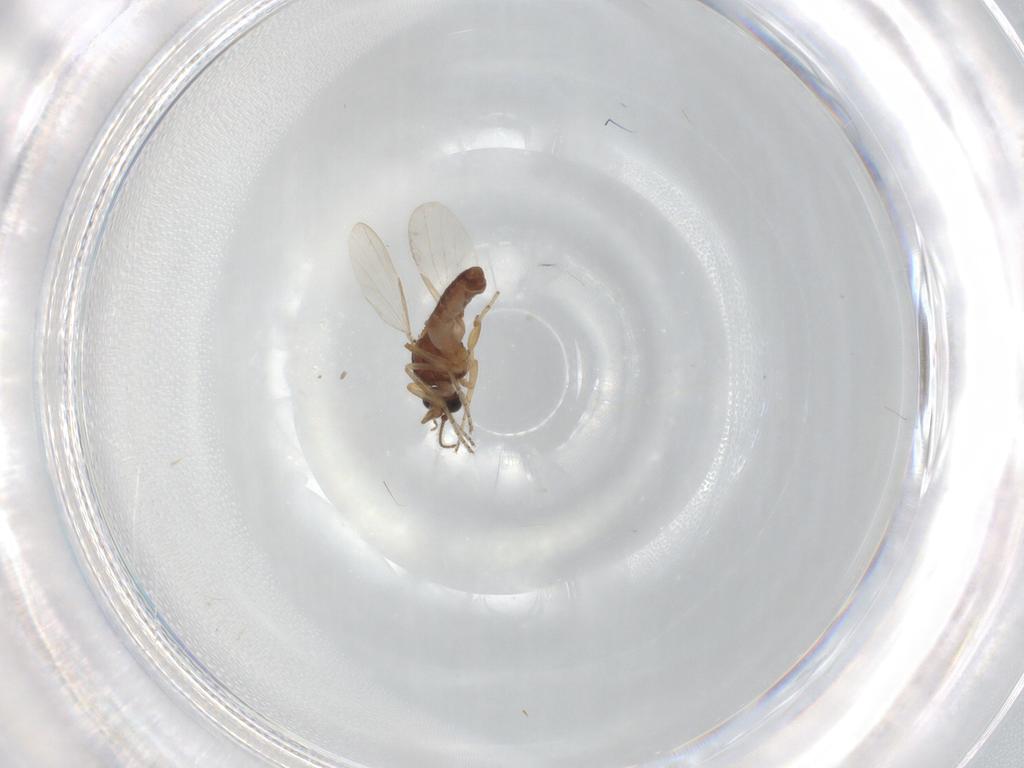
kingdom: Animalia
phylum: Arthropoda
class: Insecta
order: Diptera
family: Ceratopogonidae
